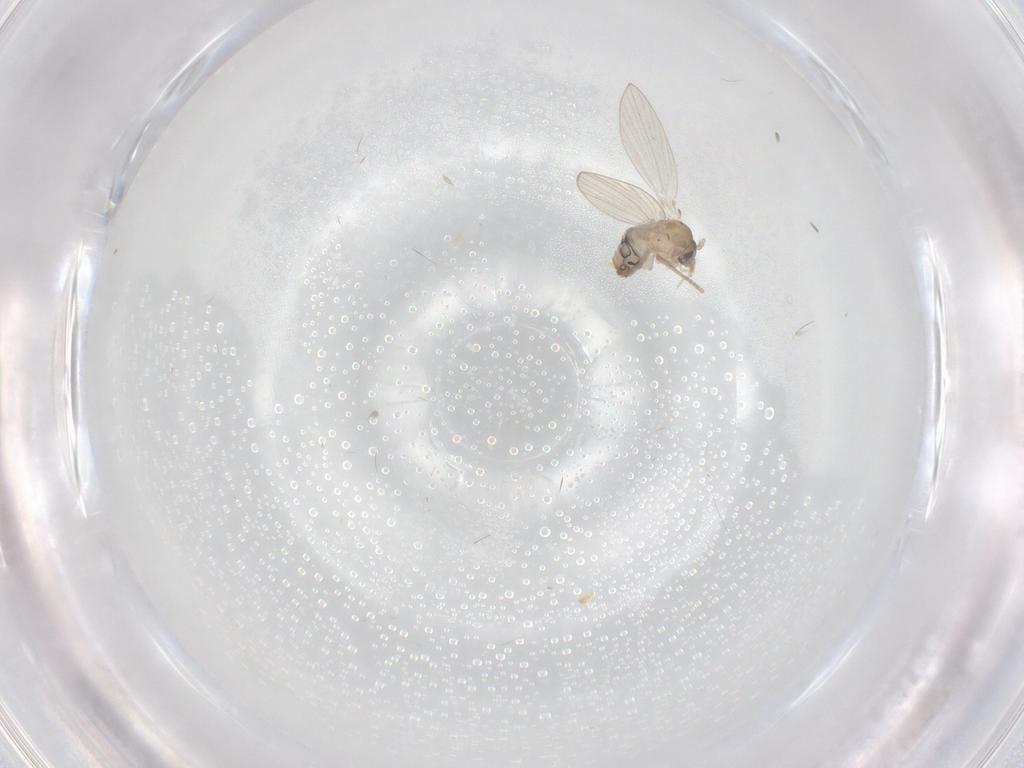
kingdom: Animalia
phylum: Arthropoda
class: Insecta
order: Diptera
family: Psychodidae
